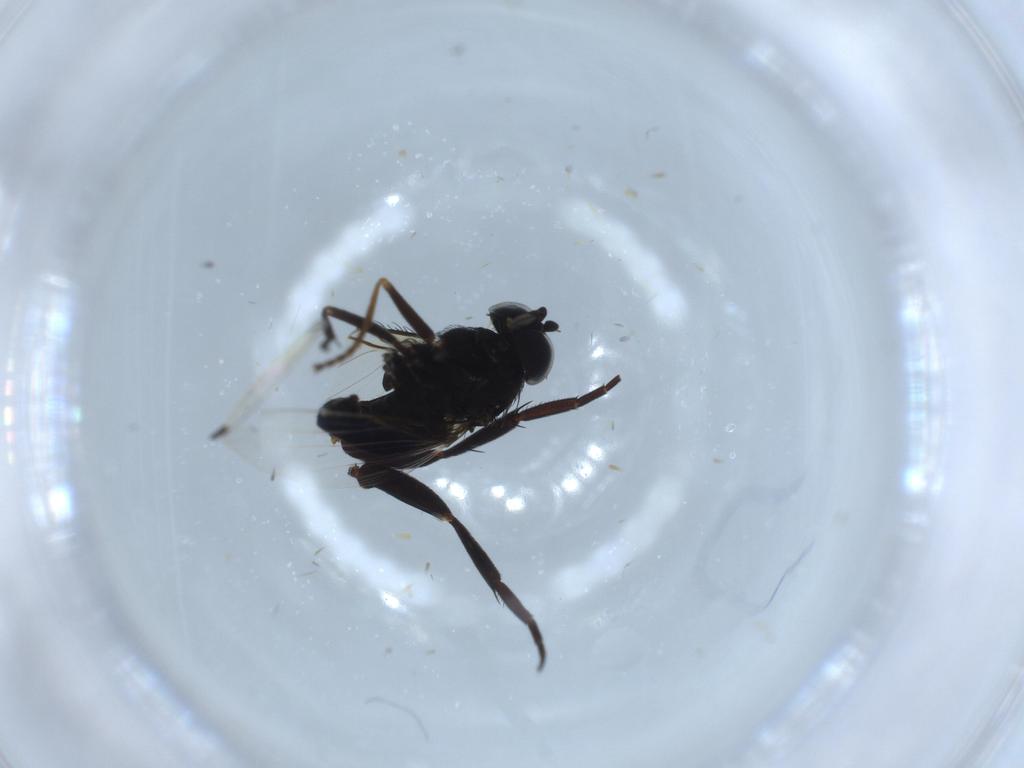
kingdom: Animalia
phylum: Arthropoda
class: Insecta
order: Diptera
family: Phoridae
